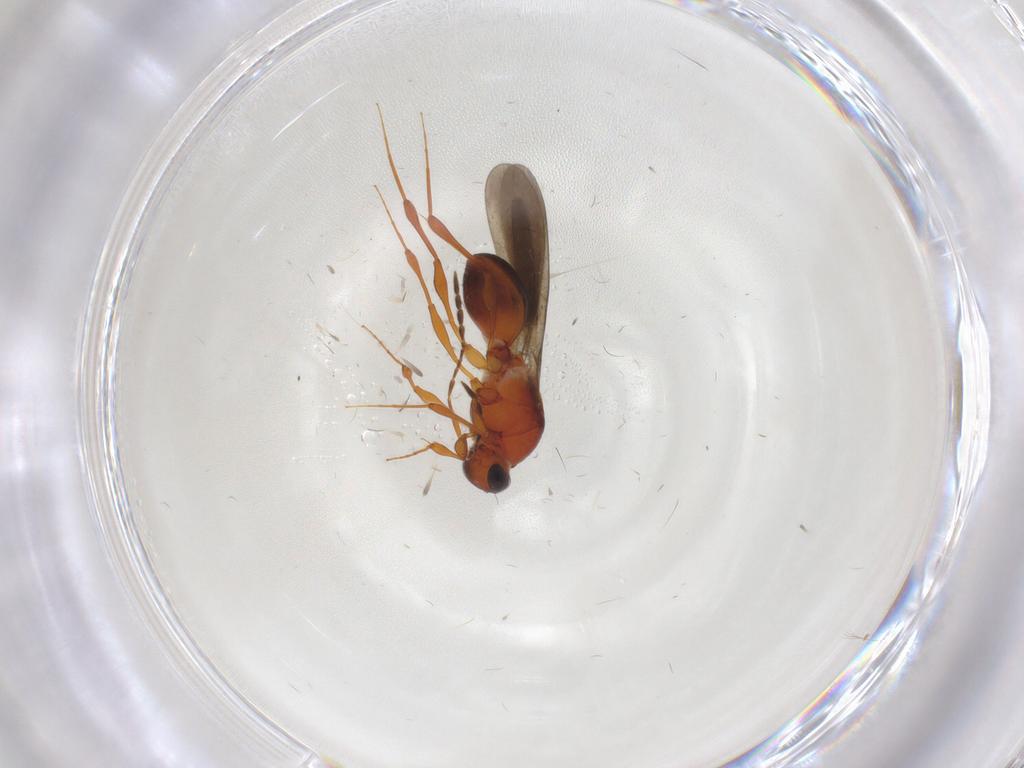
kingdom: Animalia
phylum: Arthropoda
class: Insecta
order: Hymenoptera
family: Platygastridae
